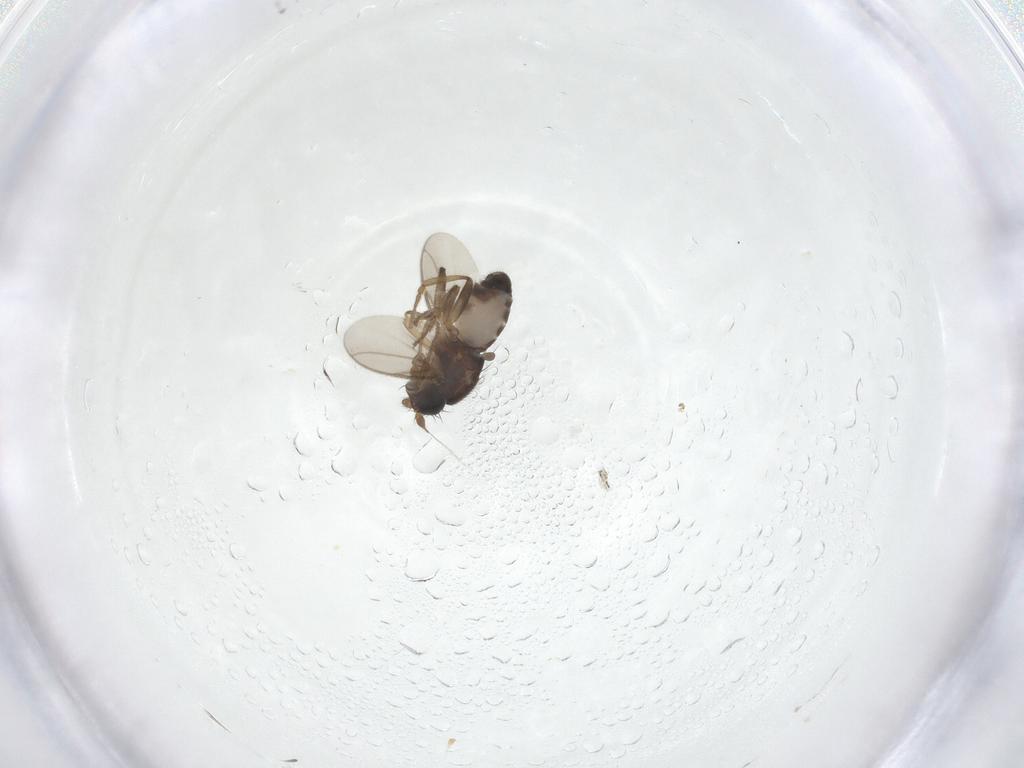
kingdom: Animalia
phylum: Arthropoda
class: Insecta
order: Diptera
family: Cecidomyiidae
